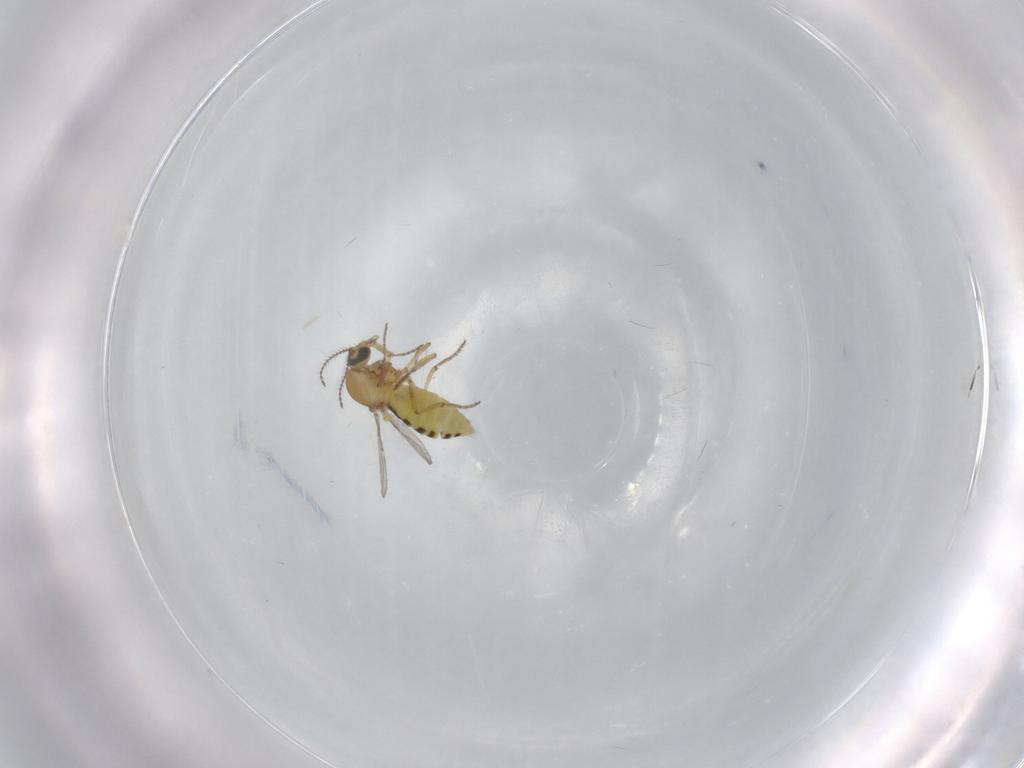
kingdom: Animalia
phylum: Arthropoda
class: Insecta
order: Diptera
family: Ceratopogonidae
